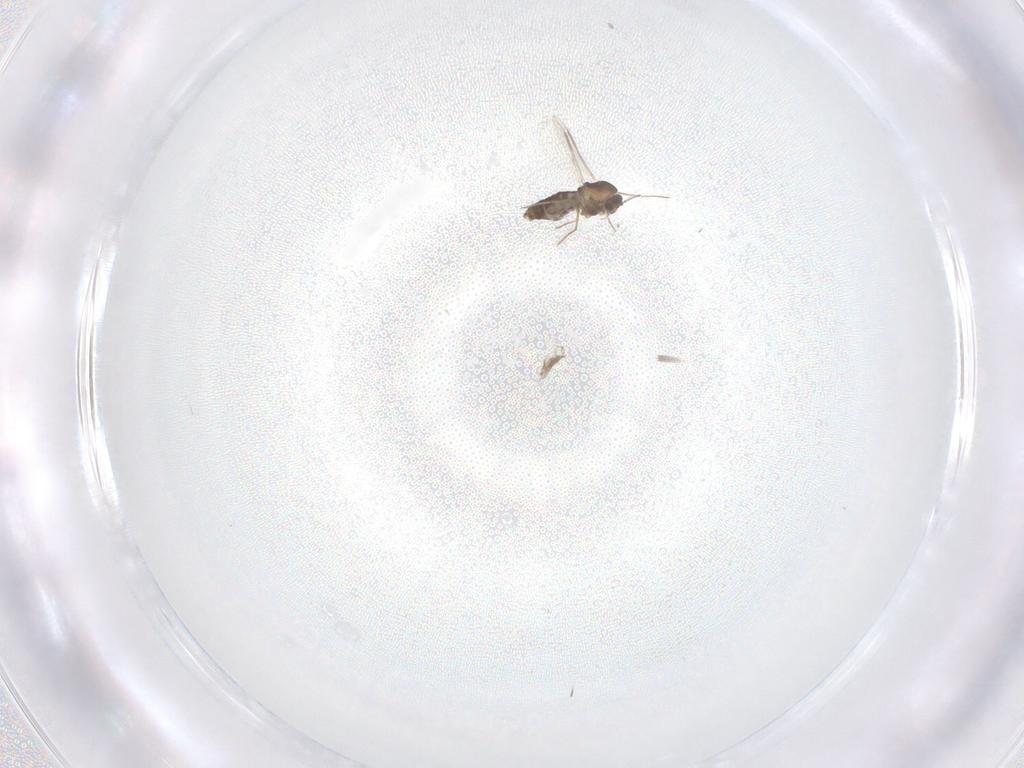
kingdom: Animalia
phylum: Arthropoda
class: Insecta
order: Diptera
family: Chironomidae
